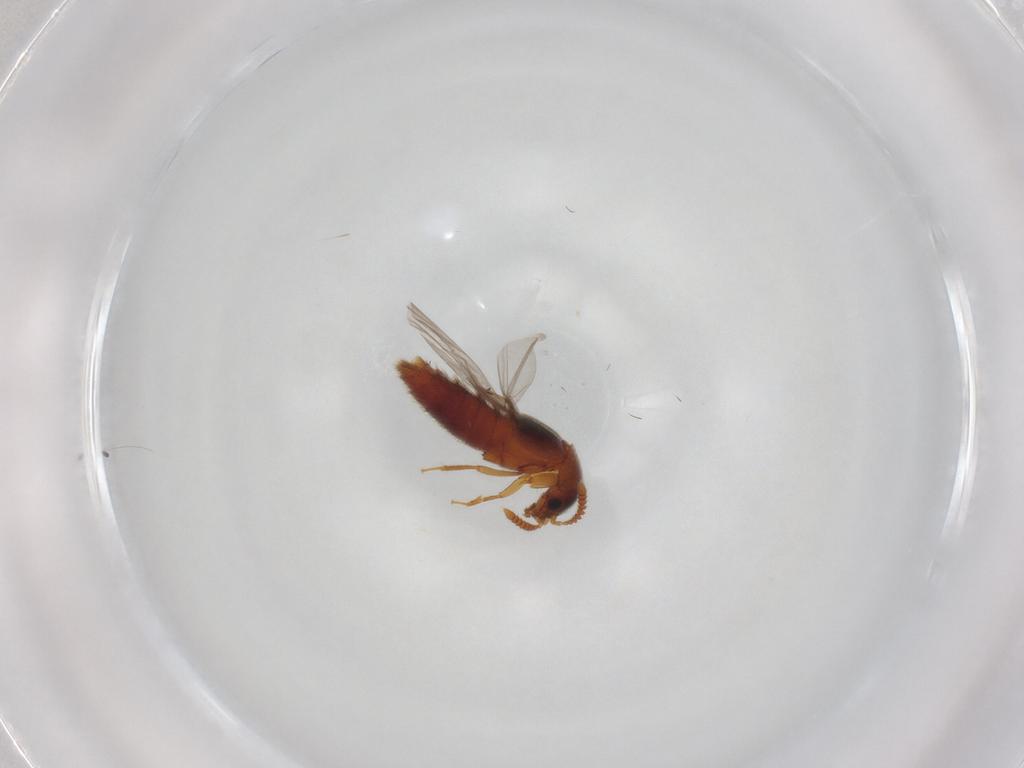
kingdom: Animalia
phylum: Arthropoda
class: Insecta
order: Coleoptera
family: Staphylinidae
